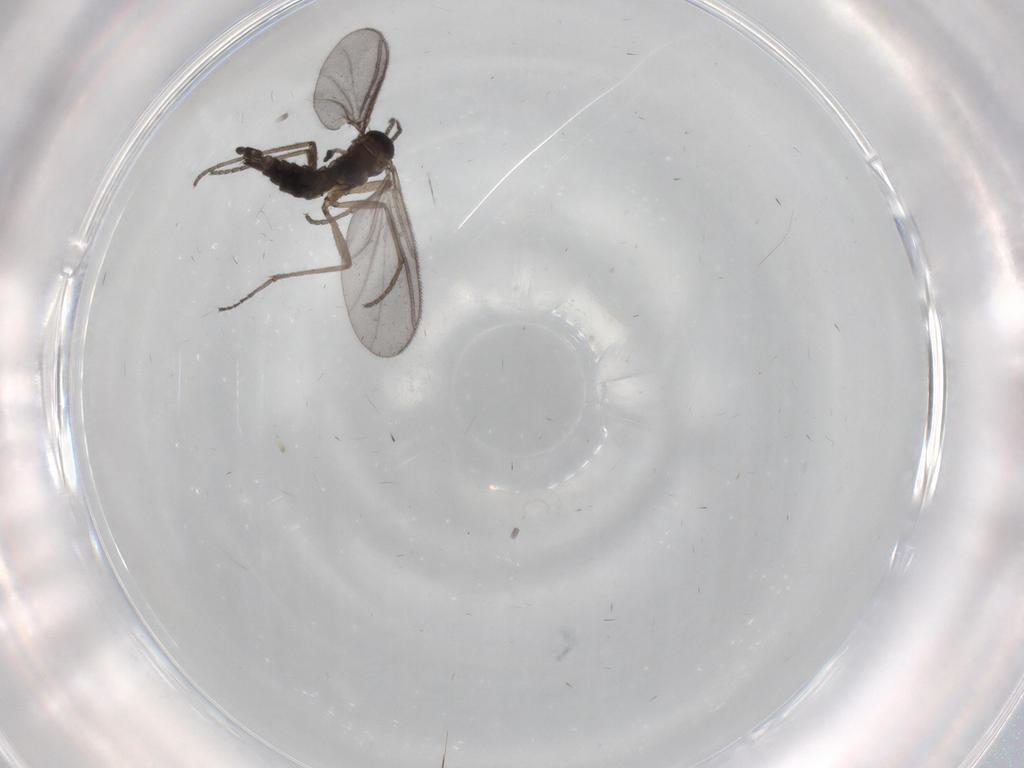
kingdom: Animalia
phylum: Arthropoda
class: Insecta
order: Diptera
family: Sciaridae
